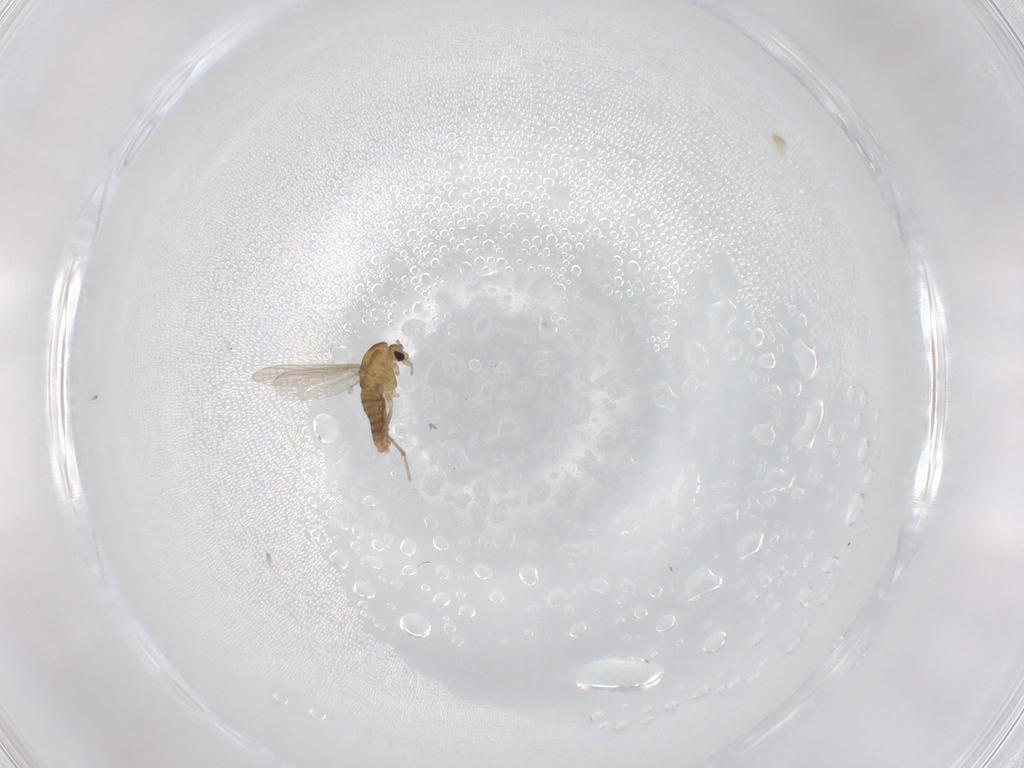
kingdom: Animalia
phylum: Arthropoda
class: Insecta
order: Diptera
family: Chironomidae
